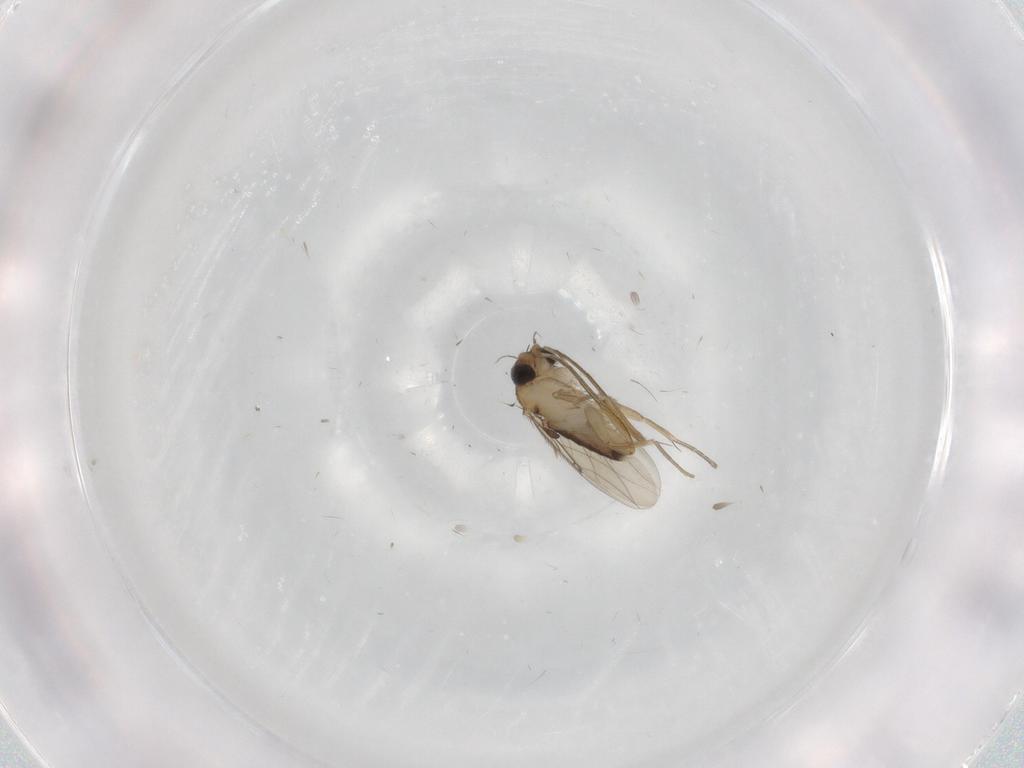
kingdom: Animalia
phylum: Arthropoda
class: Insecta
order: Diptera
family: Phoridae
